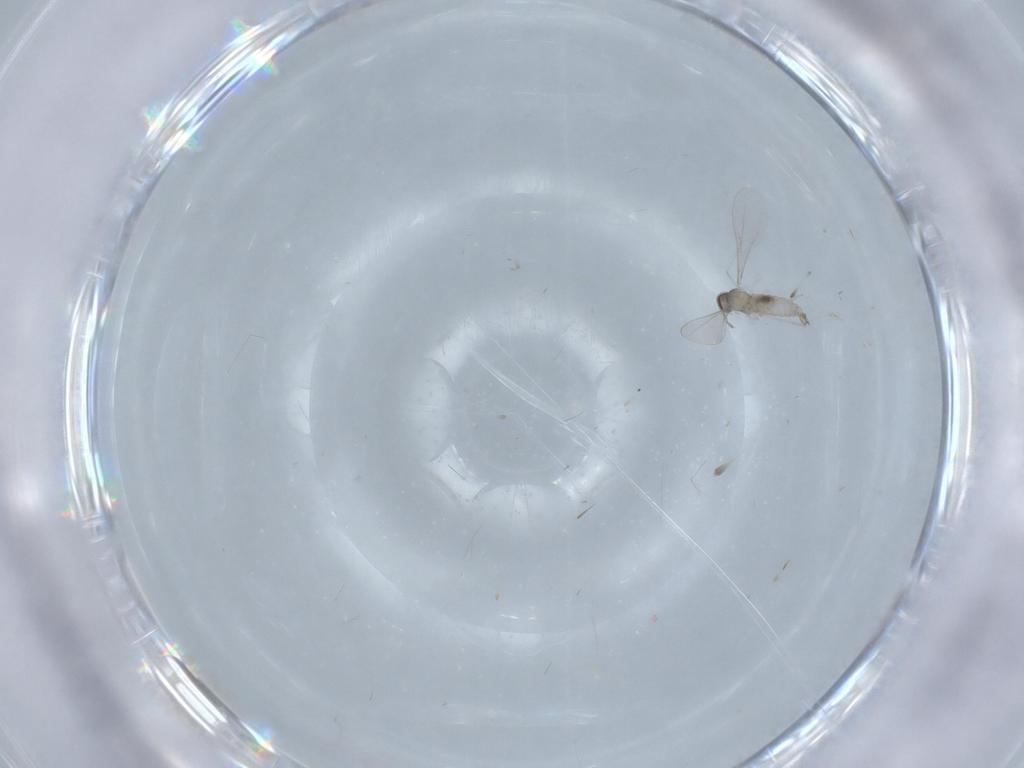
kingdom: Animalia
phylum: Arthropoda
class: Insecta
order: Diptera
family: Cecidomyiidae
